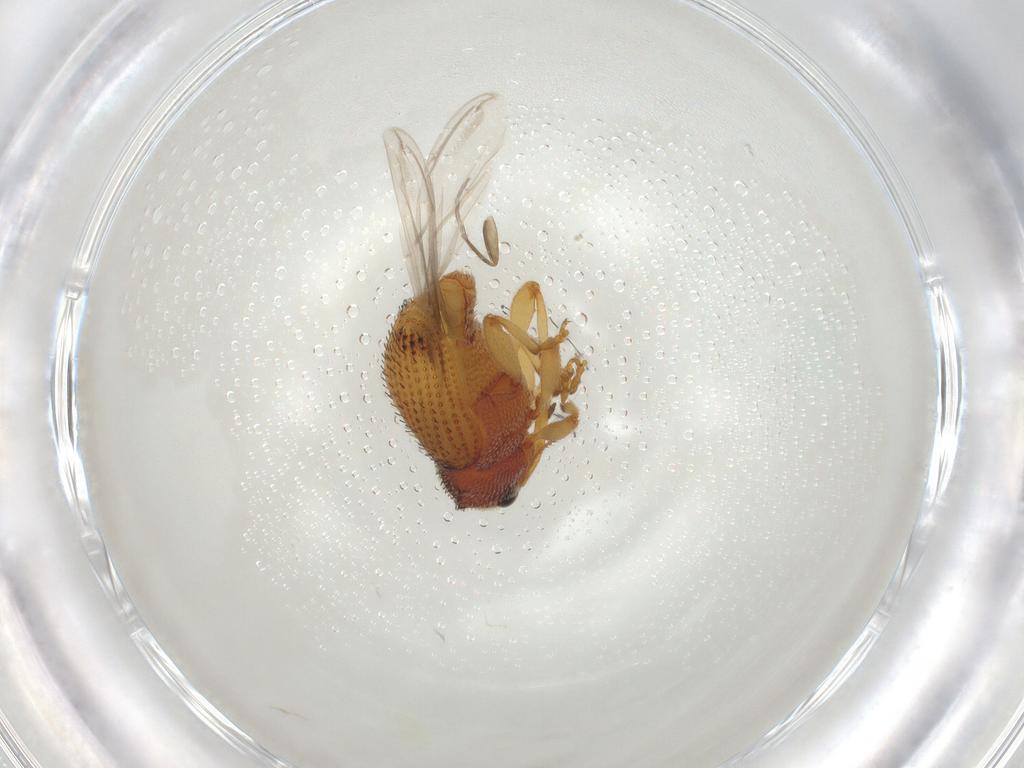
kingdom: Animalia
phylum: Arthropoda
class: Insecta
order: Coleoptera
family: Curculionidae
